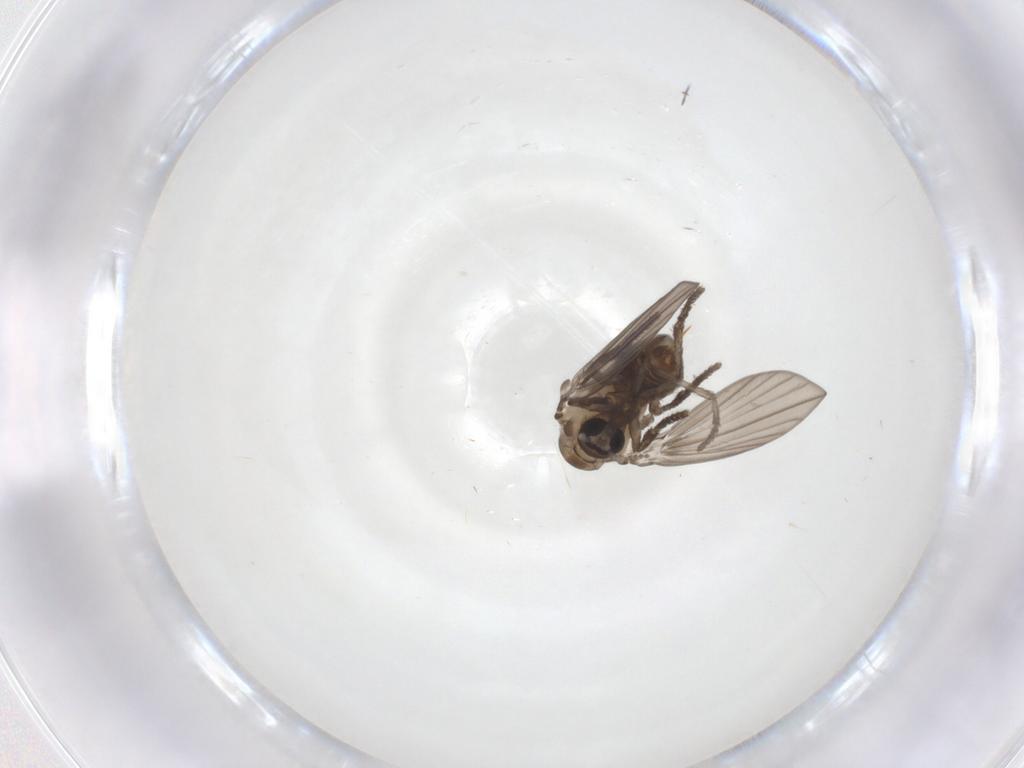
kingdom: Animalia
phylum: Arthropoda
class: Insecta
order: Diptera
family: Psychodidae
